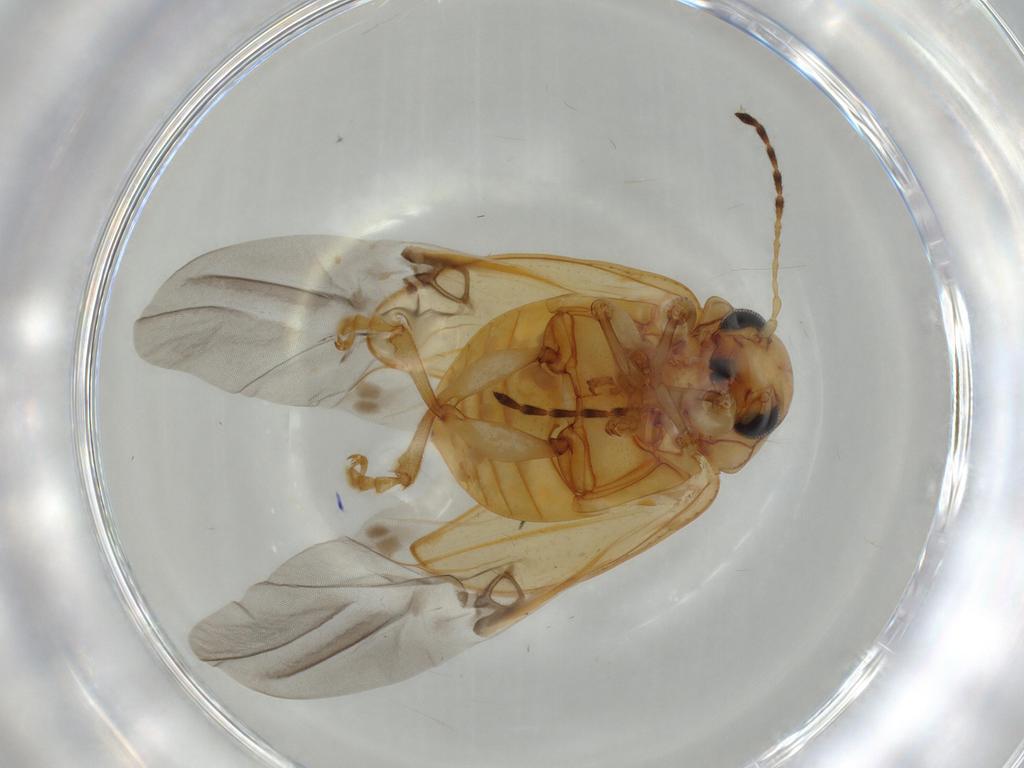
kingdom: Animalia
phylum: Arthropoda
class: Insecta
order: Coleoptera
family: Chrysomelidae
